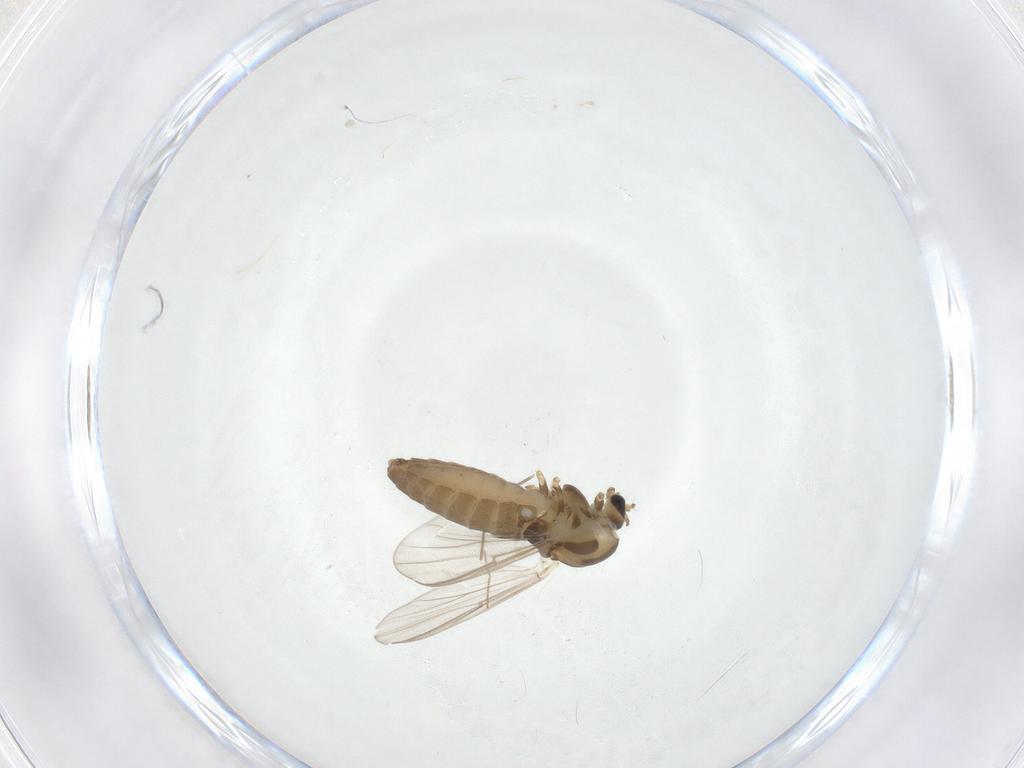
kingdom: Animalia
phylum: Arthropoda
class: Insecta
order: Diptera
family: Chironomidae
